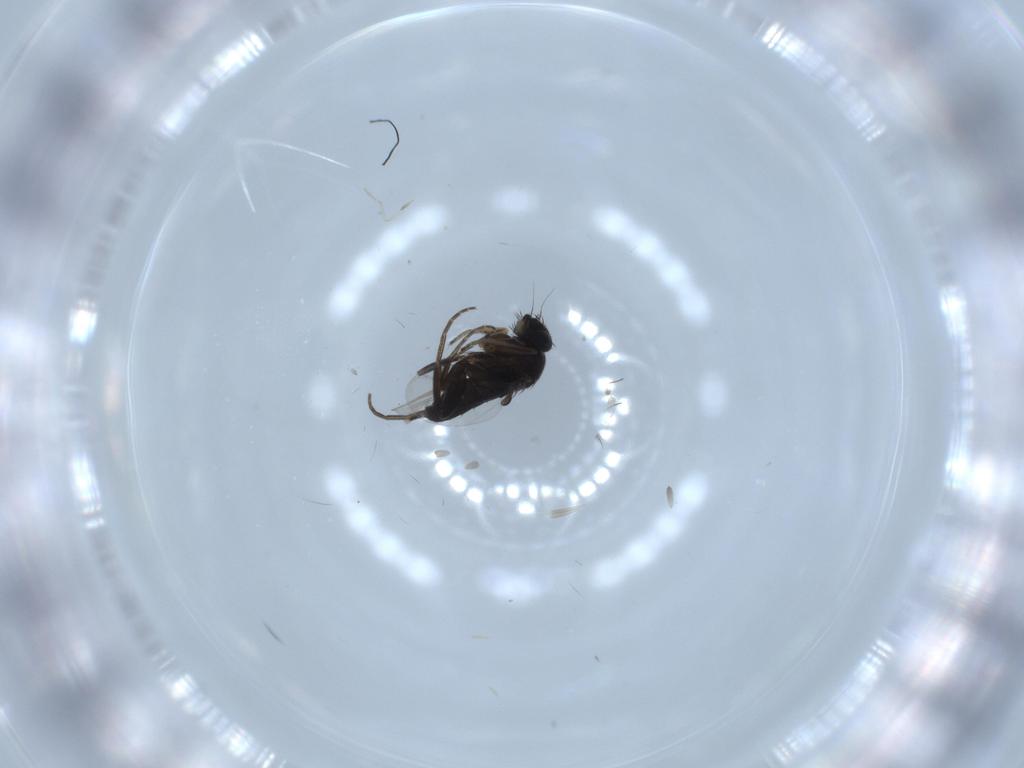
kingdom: Animalia
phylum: Arthropoda
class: Insecta
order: Diptera
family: Cecidomyiidae
